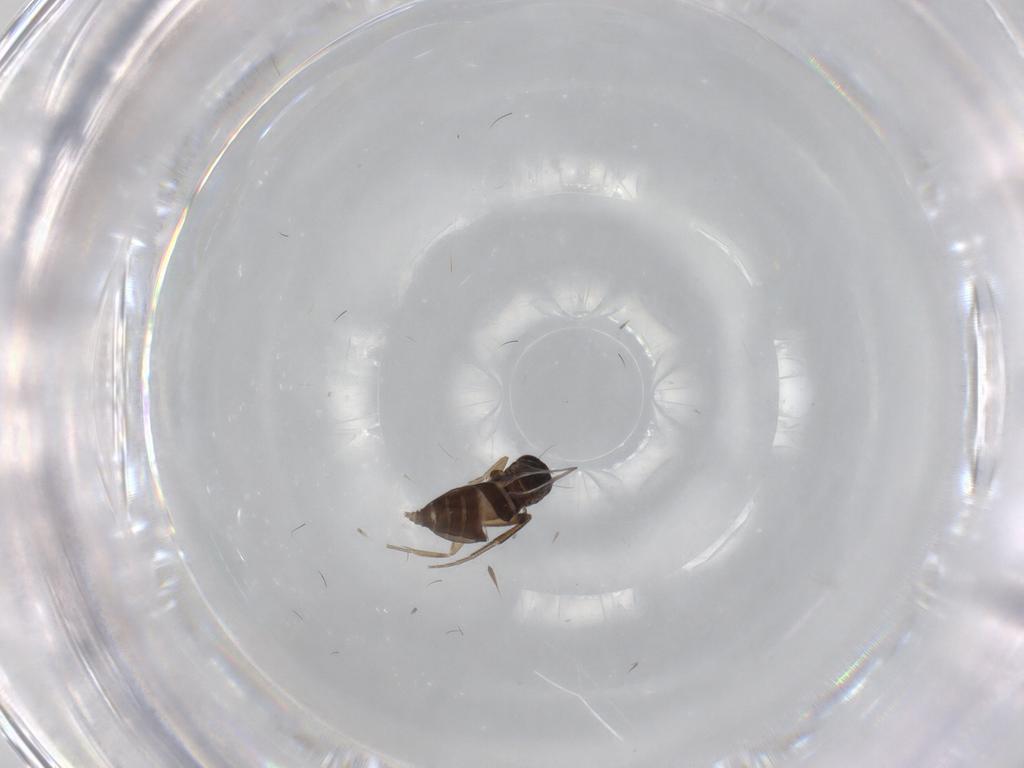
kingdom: Animalia
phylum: Arthropoda
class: Insecta
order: Diptera
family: Phoridae
